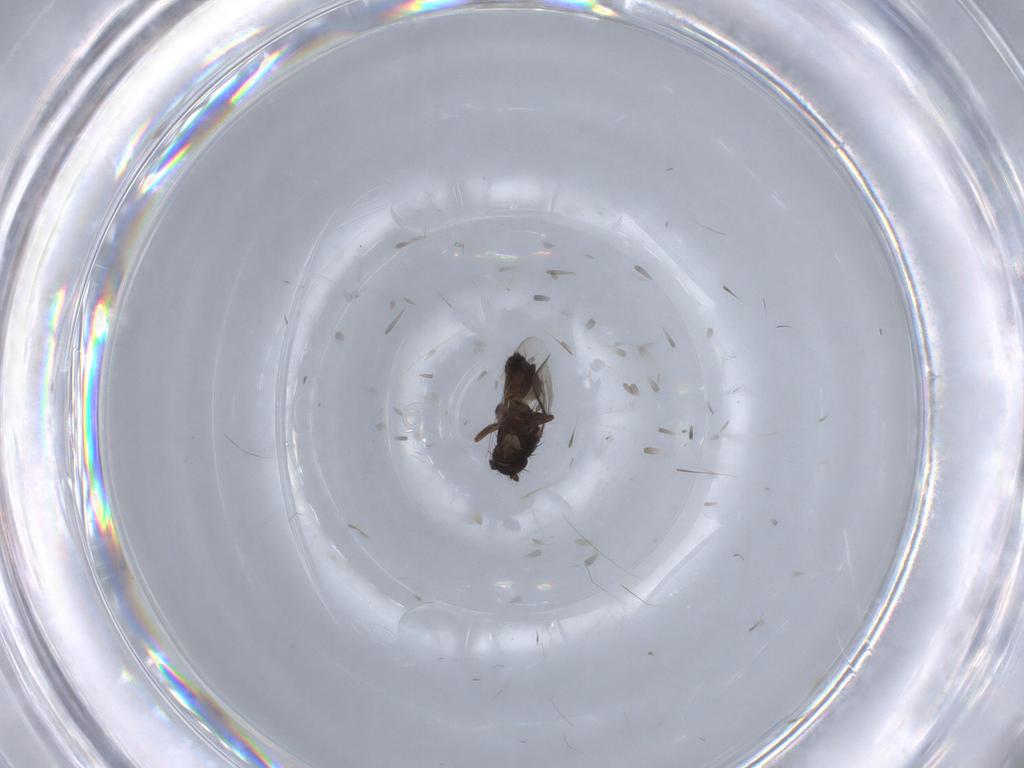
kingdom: Animalia
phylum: Arthropoda
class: Insecta
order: Diptera
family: Sphaeroceridae
